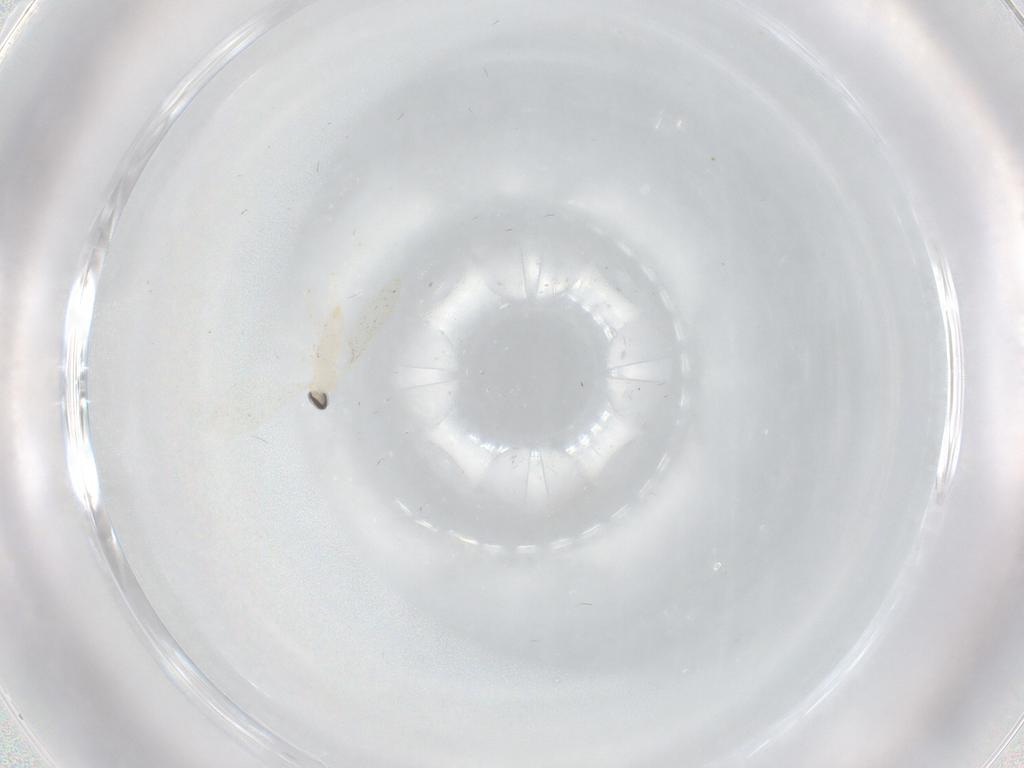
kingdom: Animalia
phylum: Arthropoda
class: Insecta
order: Diptera
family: Cecidomyiidae
